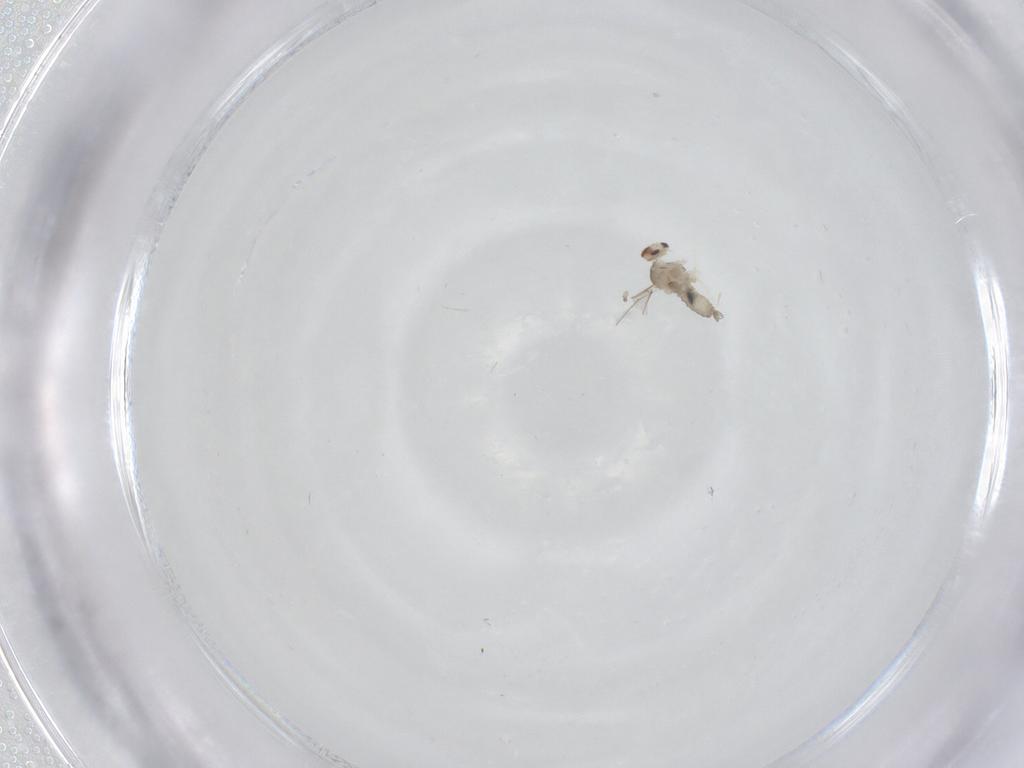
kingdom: Animalia
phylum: Arthropoda
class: Insecta
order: Diptera
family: Cecidomyiidae
